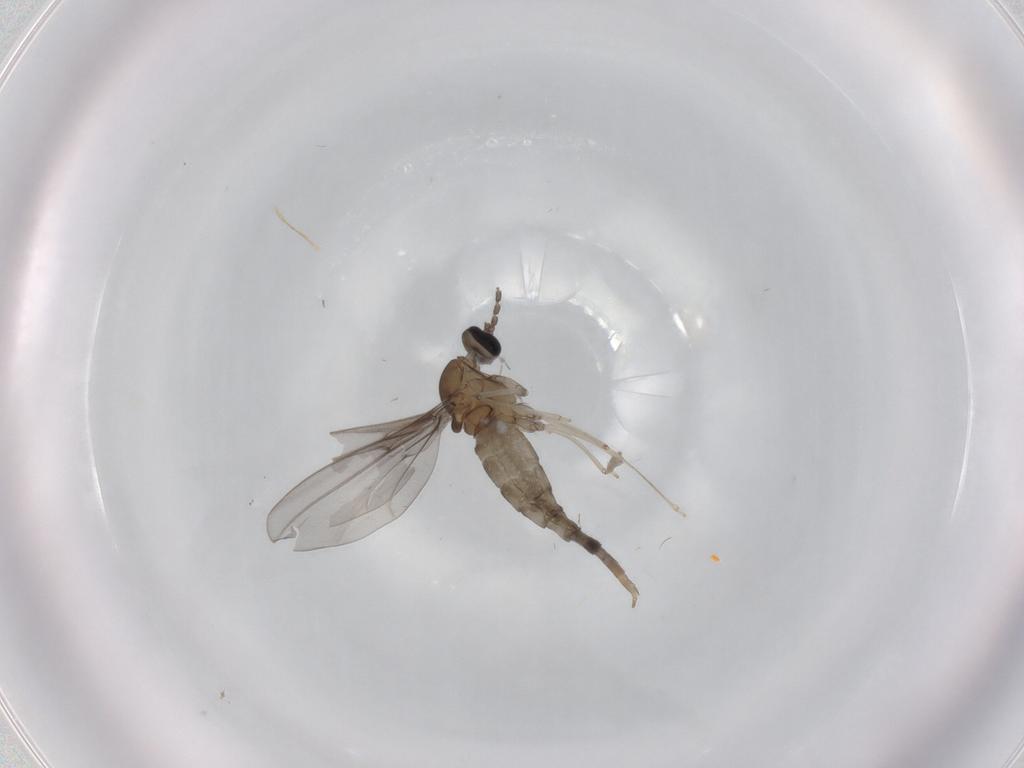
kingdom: Animalia
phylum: Arthropoda
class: Insecta
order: Diptera
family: Cecidomyiidae
